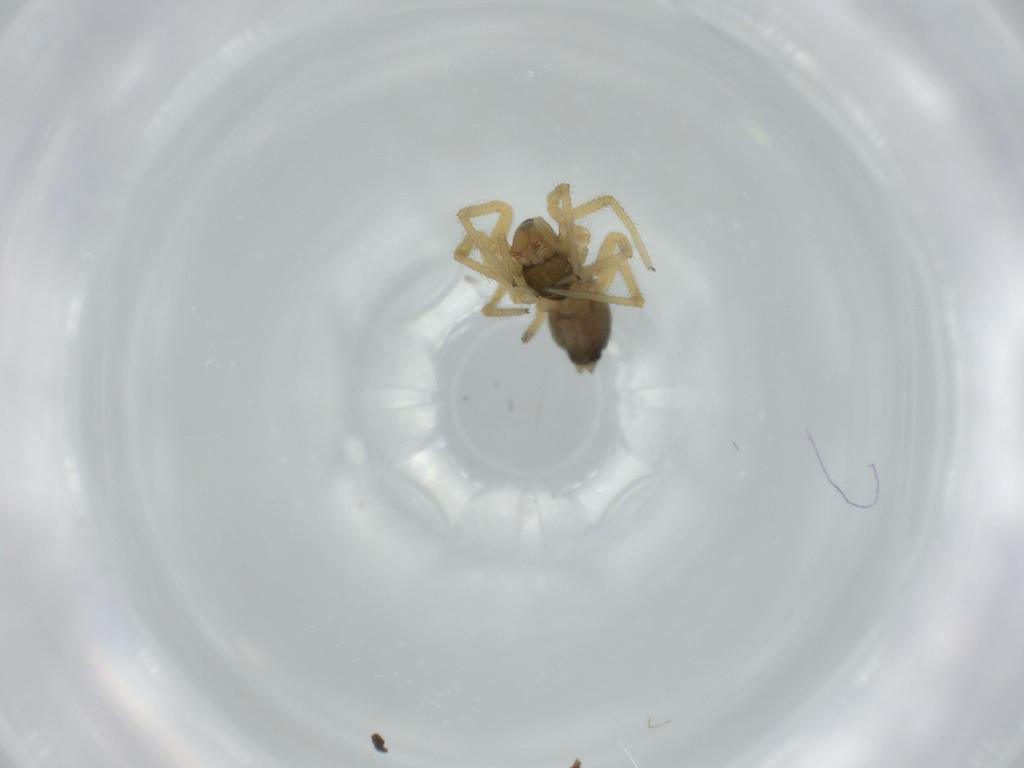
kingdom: Animalia
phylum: Arthropoda
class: Arachnida
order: Araneae
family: Linyphiidae
